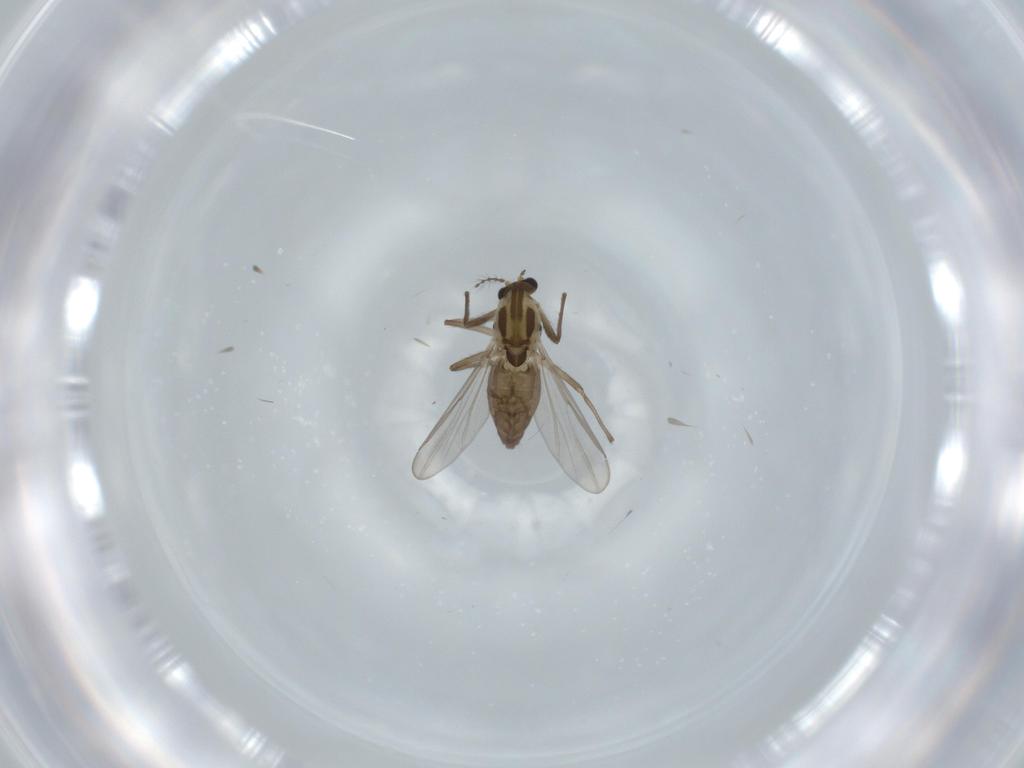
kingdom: Animalia
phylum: Arthropoda
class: Insecta
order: Diptera
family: Chironomidae
